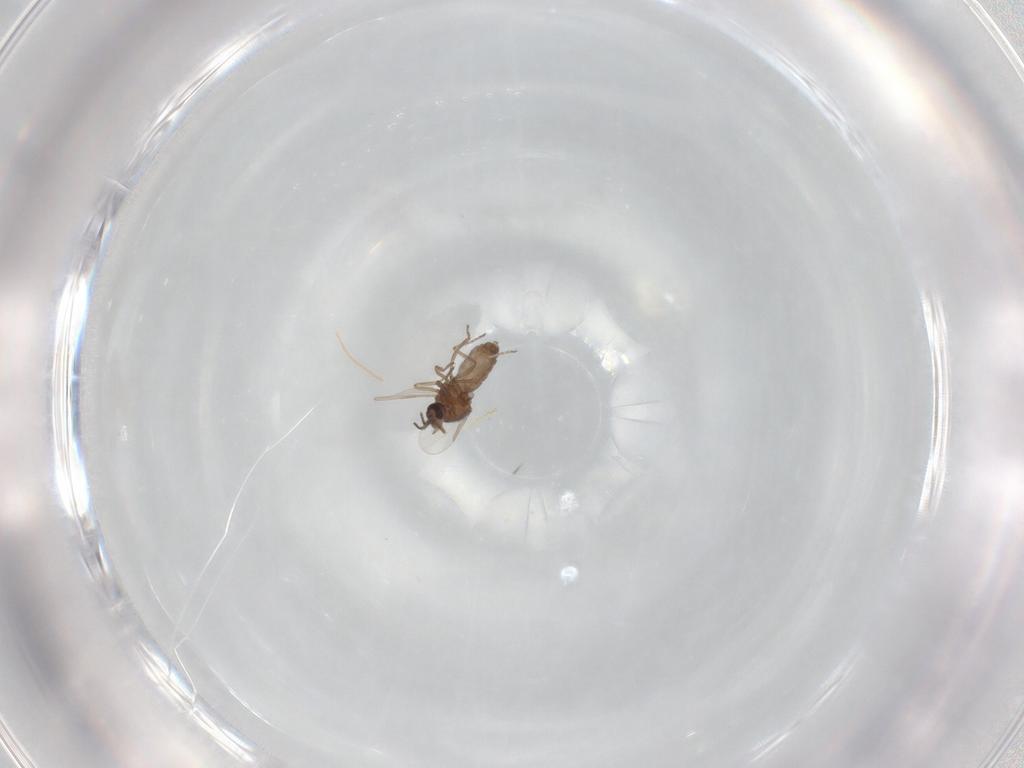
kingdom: Animalia
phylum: Arthropoda
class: Insecta
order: Diptera
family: Ceratopogonidae
